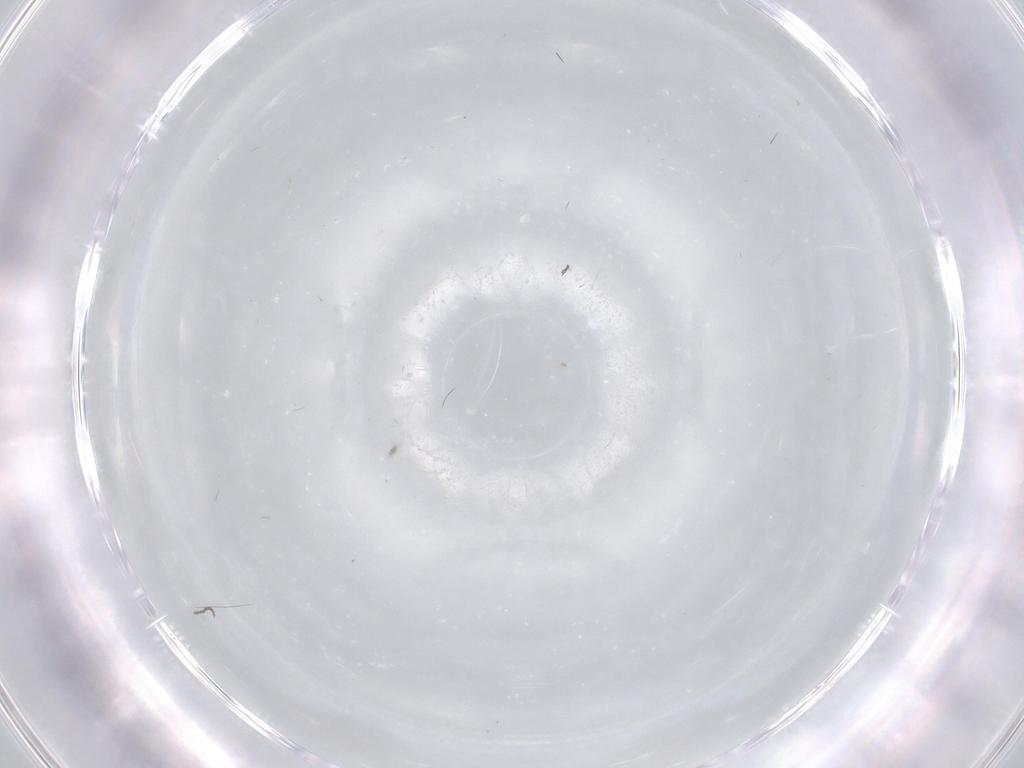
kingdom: Animalia
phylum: Arthropoda
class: Insecta
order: Diptera
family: Cecidomyiidae
